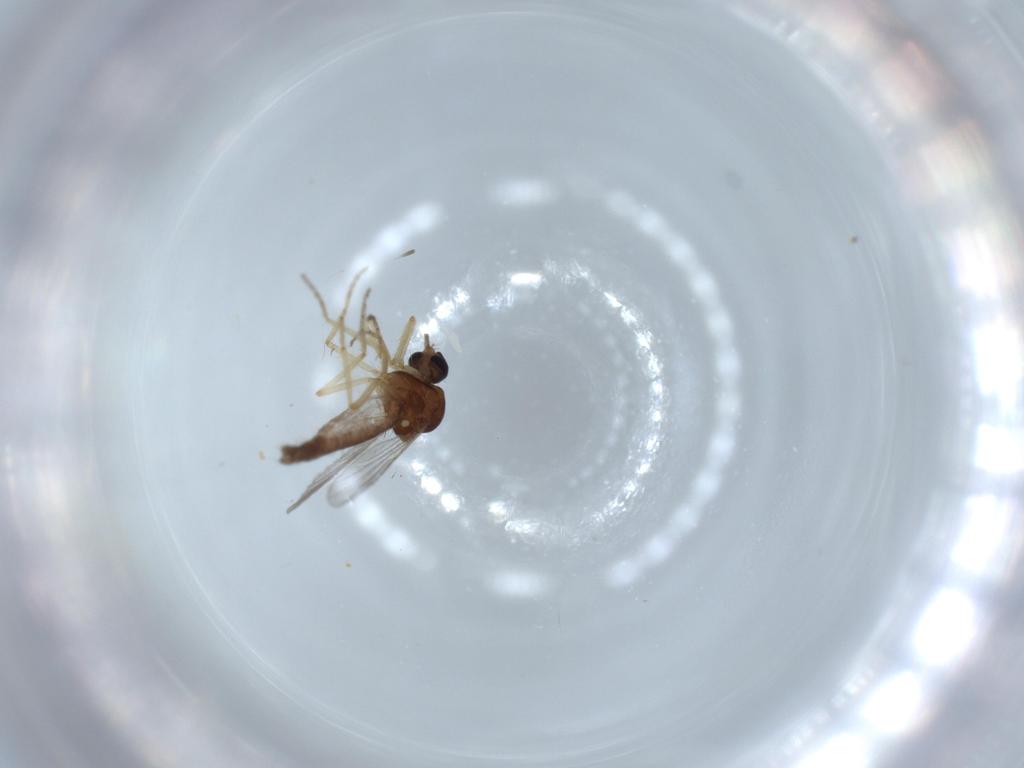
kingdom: Animalia
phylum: Arthropoda
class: Insecta
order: Diptera
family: Ceratopogonidae
